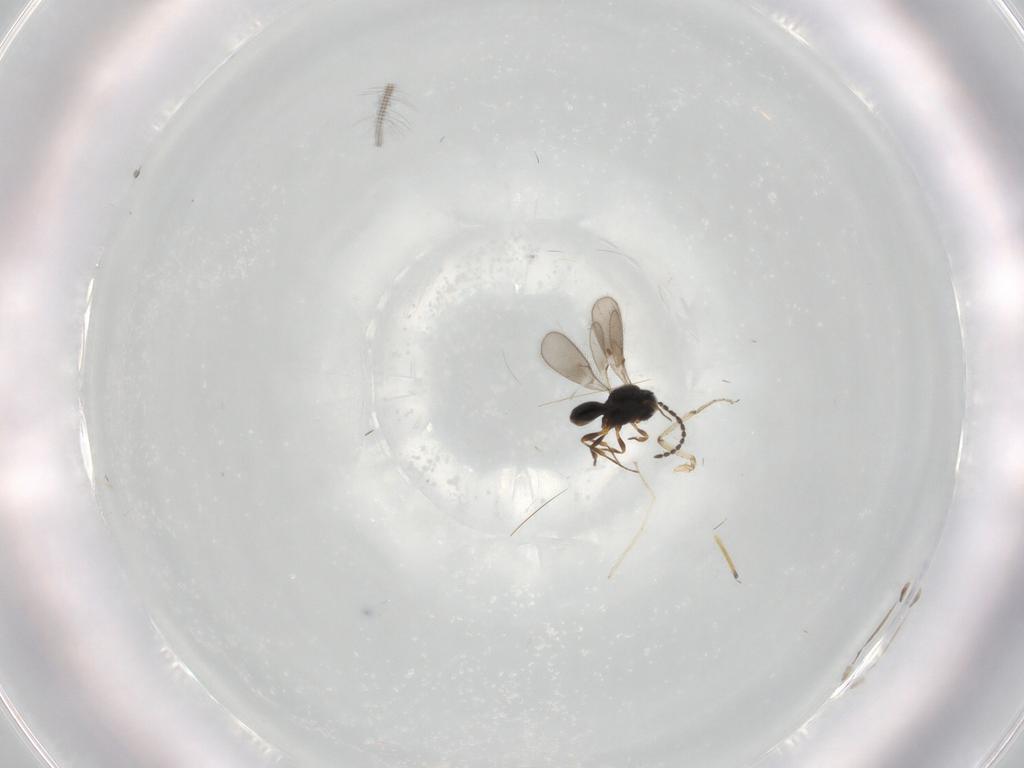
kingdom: Animalia
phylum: Arthropoda
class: Insecta
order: Hymenoptera
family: Scelionidae
